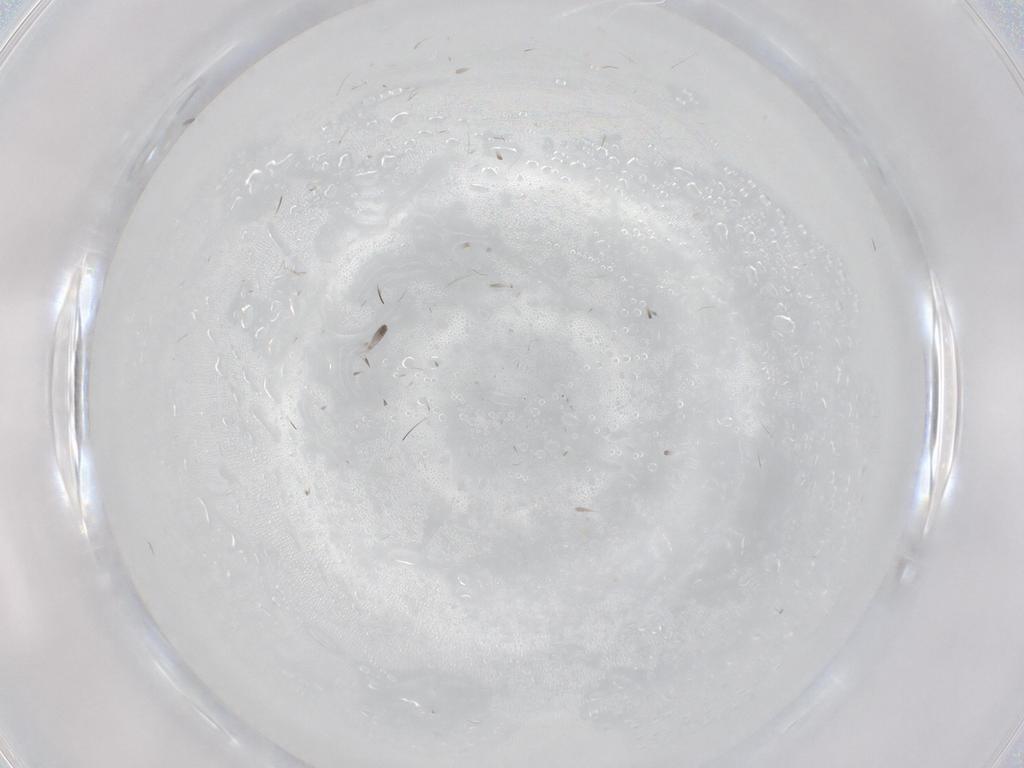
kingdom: Animalia
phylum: Arthropoda
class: Insecta
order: Diptera
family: Cecidomyiidae
